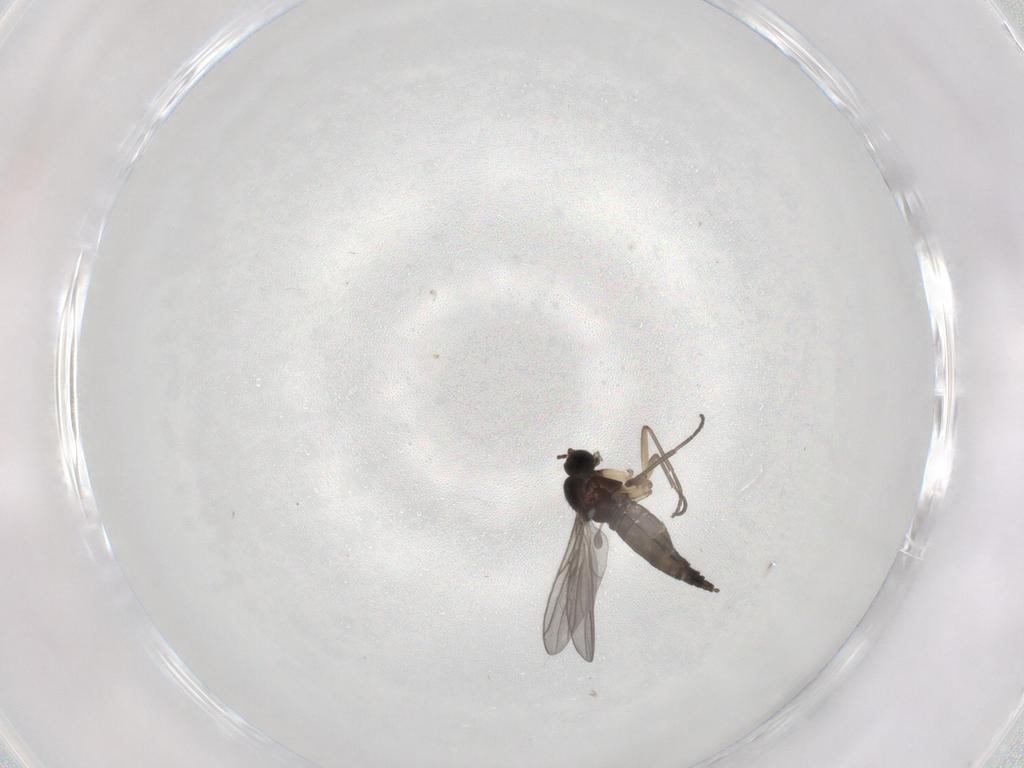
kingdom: Animalia
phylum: Arthropoda
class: Insecta
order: Diptera
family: Sciaridae
